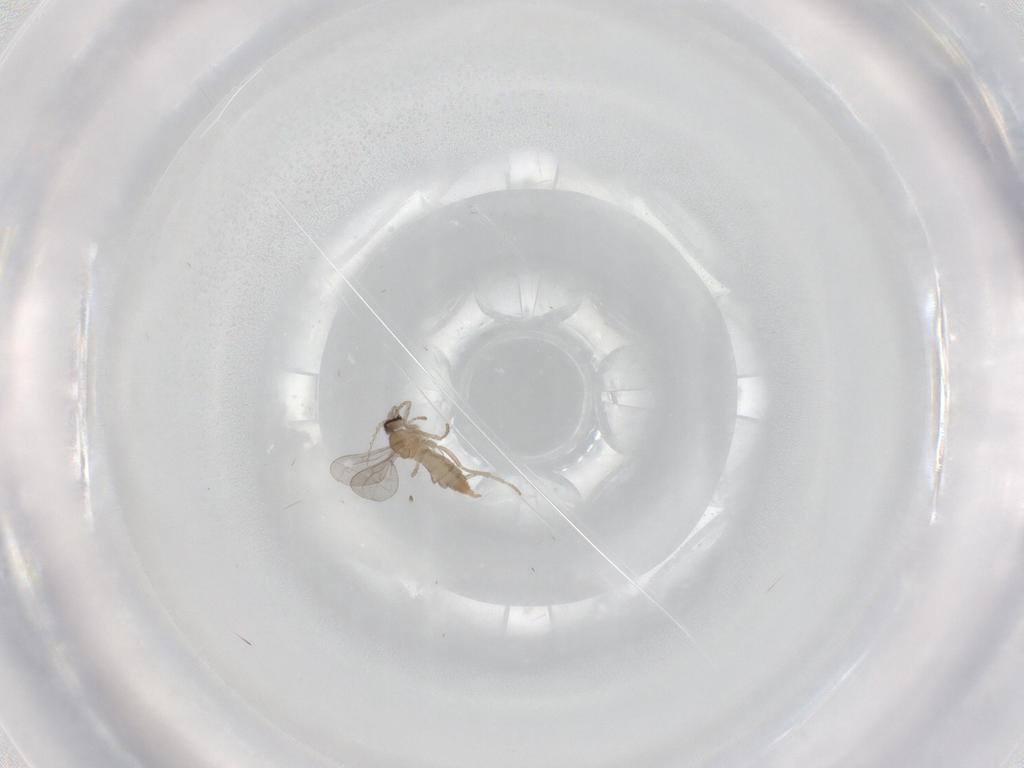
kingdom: Animalia
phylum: Arthropoda
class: Insecta
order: Diptera
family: Cecidomyiidae
